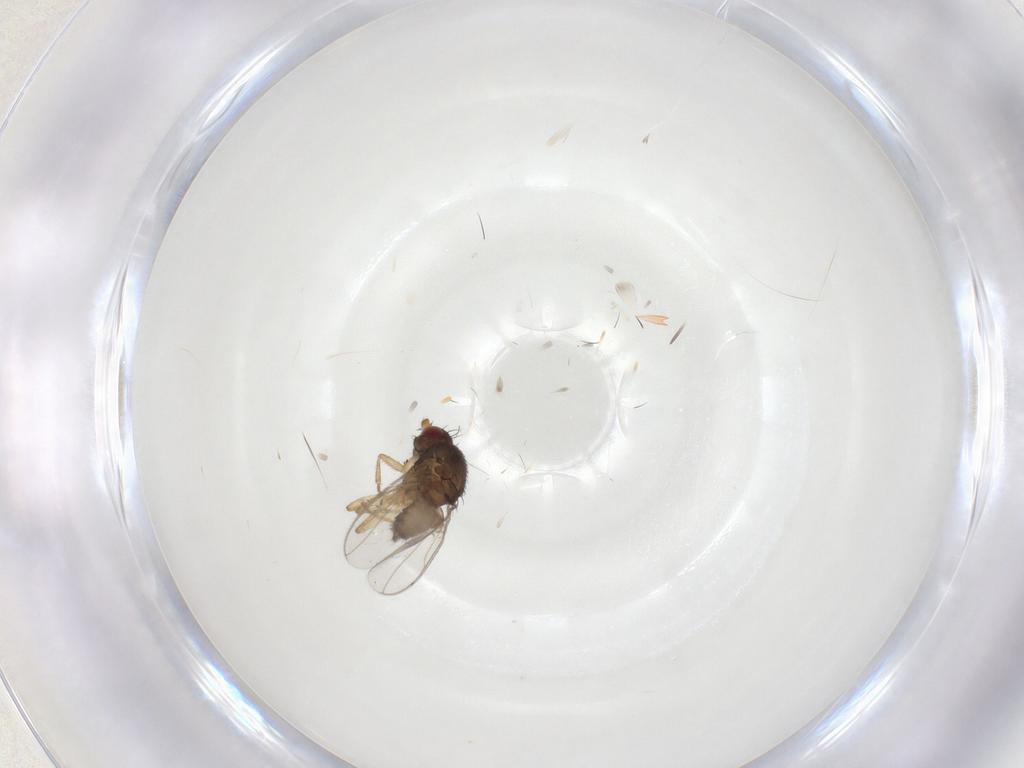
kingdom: Animalia
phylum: Arthropoda
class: Insecta
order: Diptera
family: Sphaeroceridae
